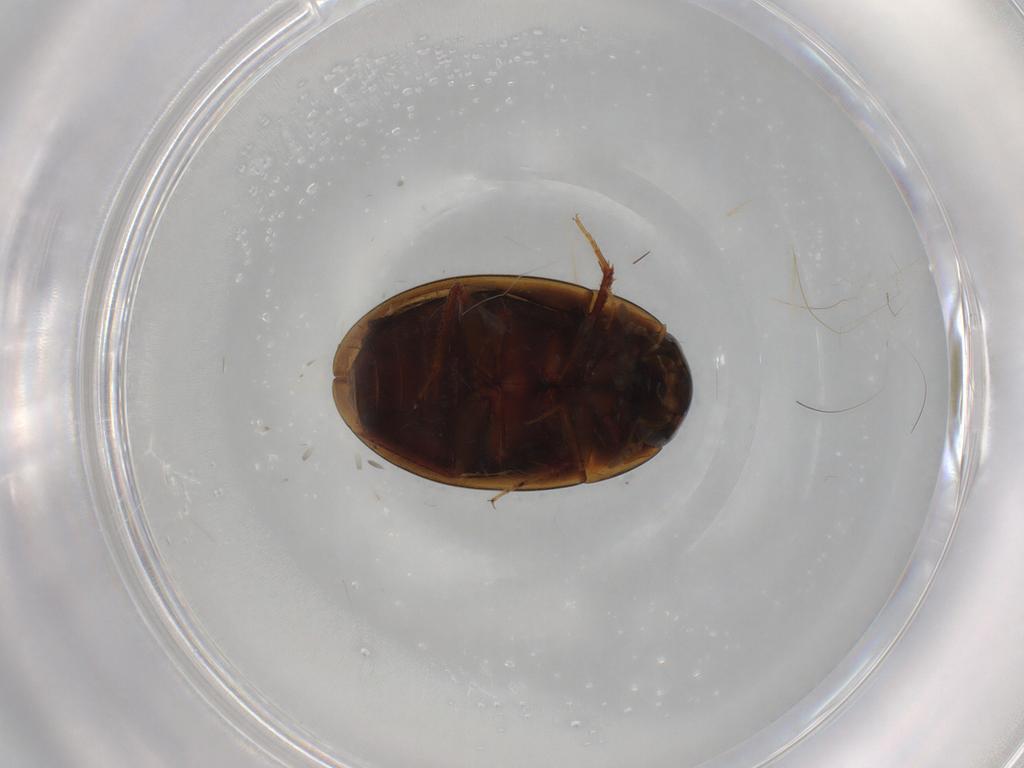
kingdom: Animalia
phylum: Arthropoda
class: Insecta
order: Coleoptera
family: Hydrophilidae
